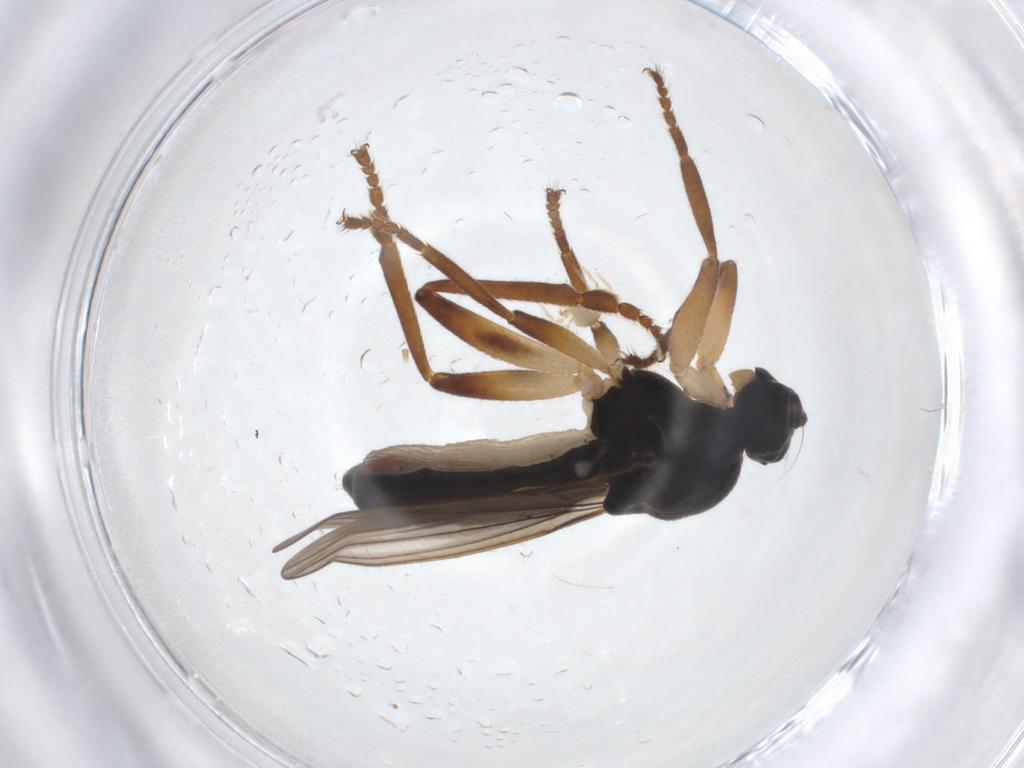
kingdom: Animalia
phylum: Arthropoda
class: Insecta
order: Diptera
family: Sphaeroceridae
